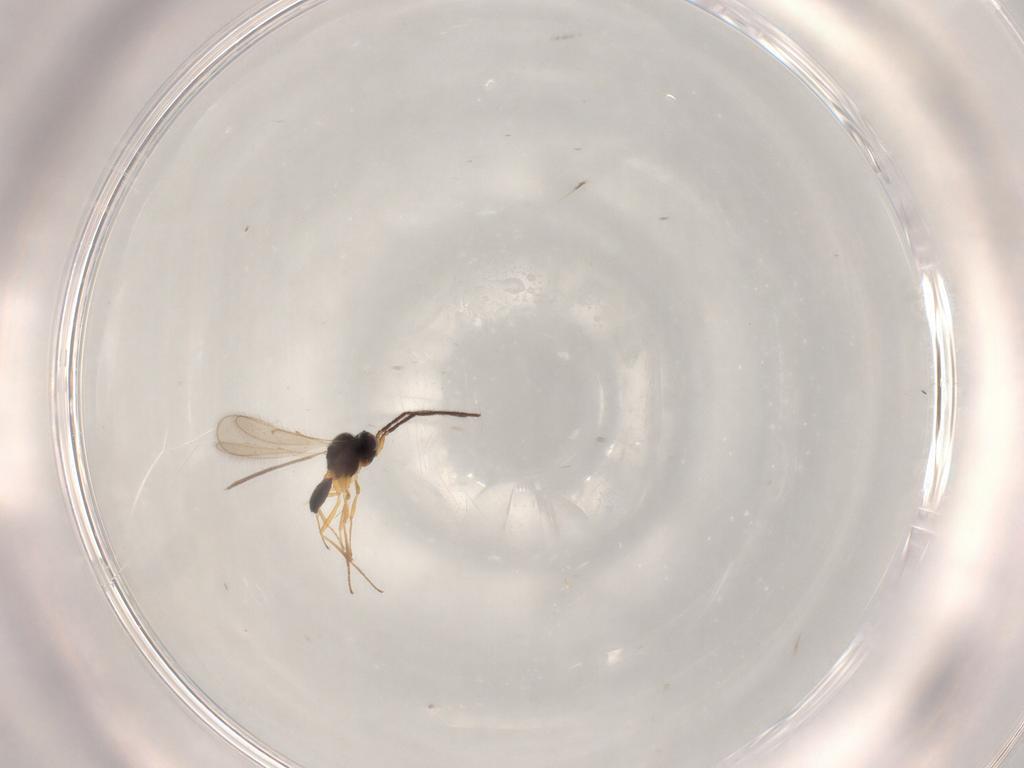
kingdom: Animalia
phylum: Arthropoda
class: Insecta
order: Hymenoptera
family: Scelionidae
